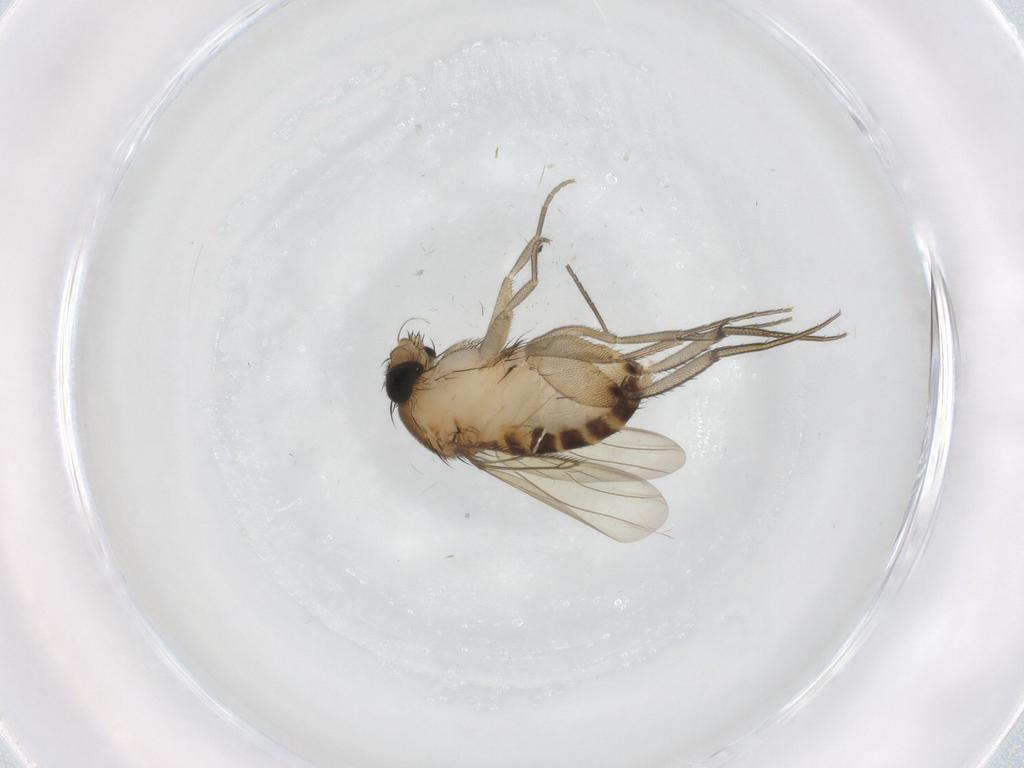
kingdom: Animalia
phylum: Arthropoda
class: Insecta
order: Diptera
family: Phoridae
